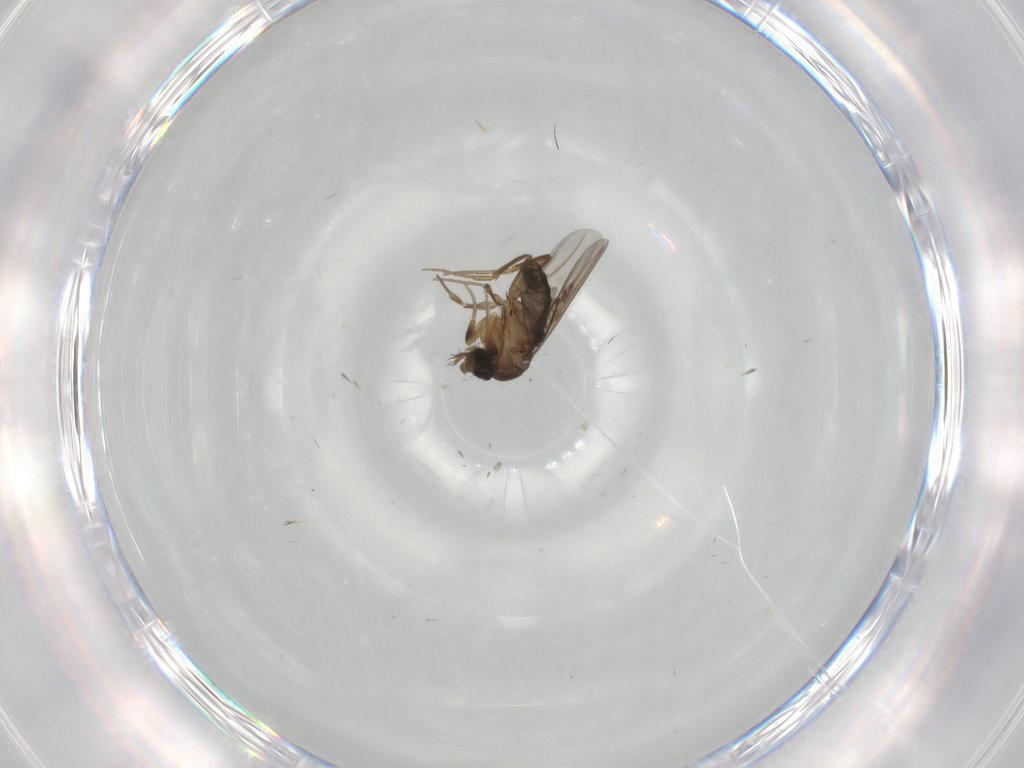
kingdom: Animalia
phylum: Arthropoda
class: Insecta
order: Diptera
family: Phoridae
